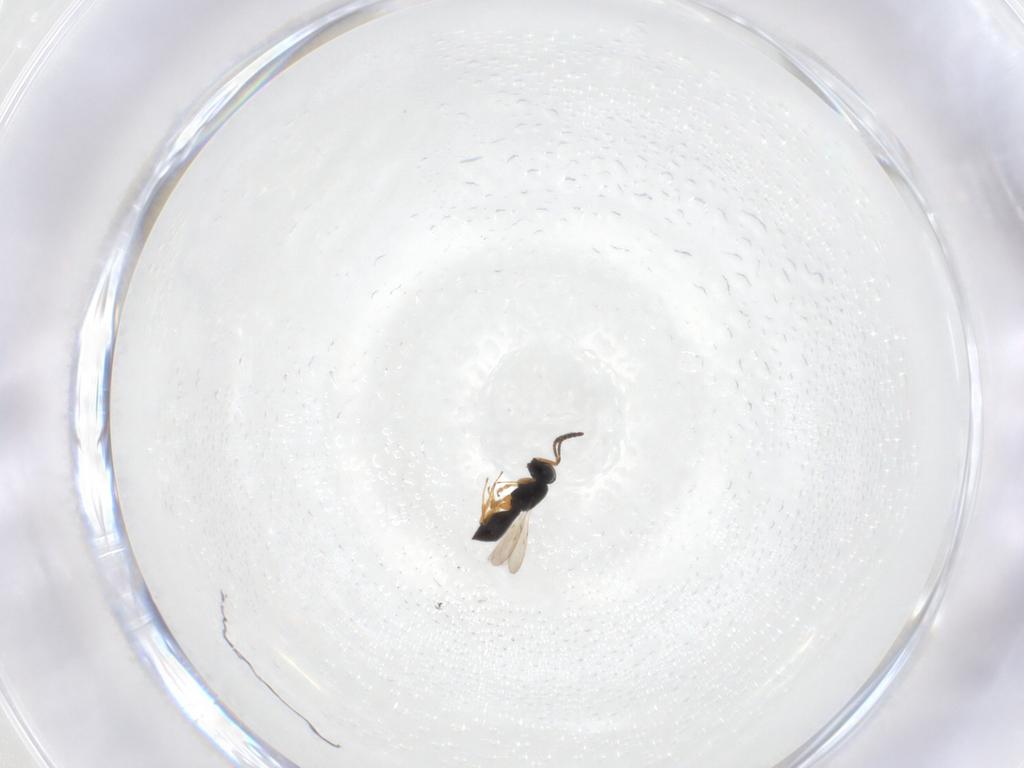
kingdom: Animalia
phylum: Arthropoda
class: Insecta
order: Hymenoptera
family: Scelionidae
